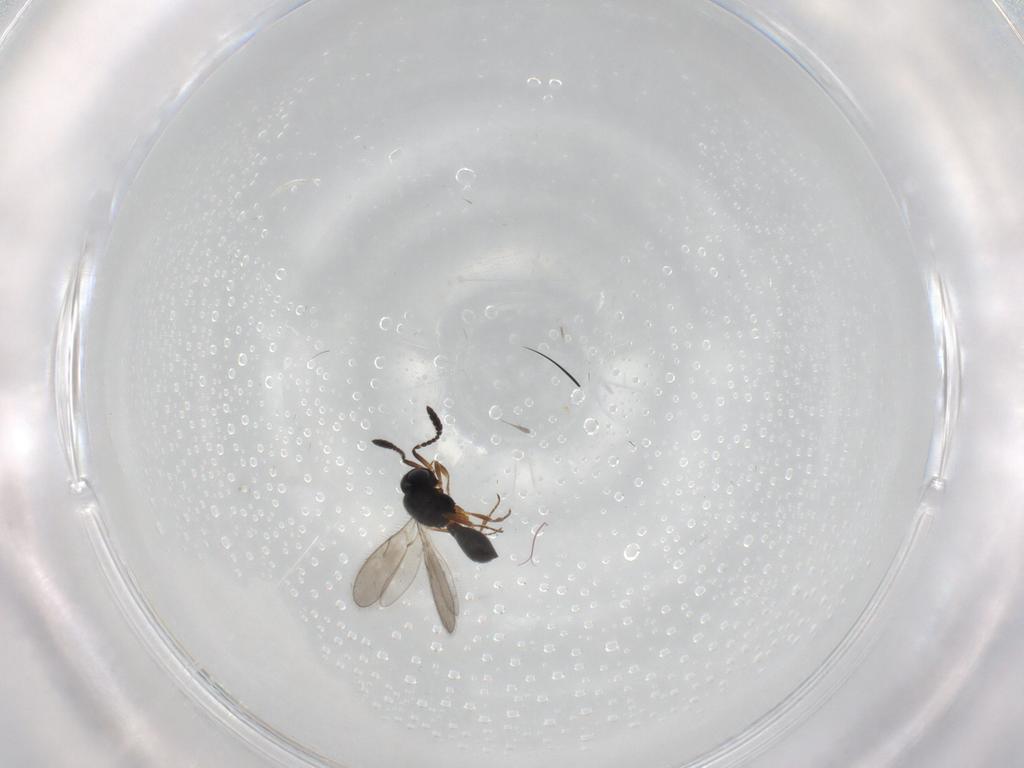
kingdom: Animalia
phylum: Arthropoda
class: Insecta
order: Hymenoptera
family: Scelionidae
